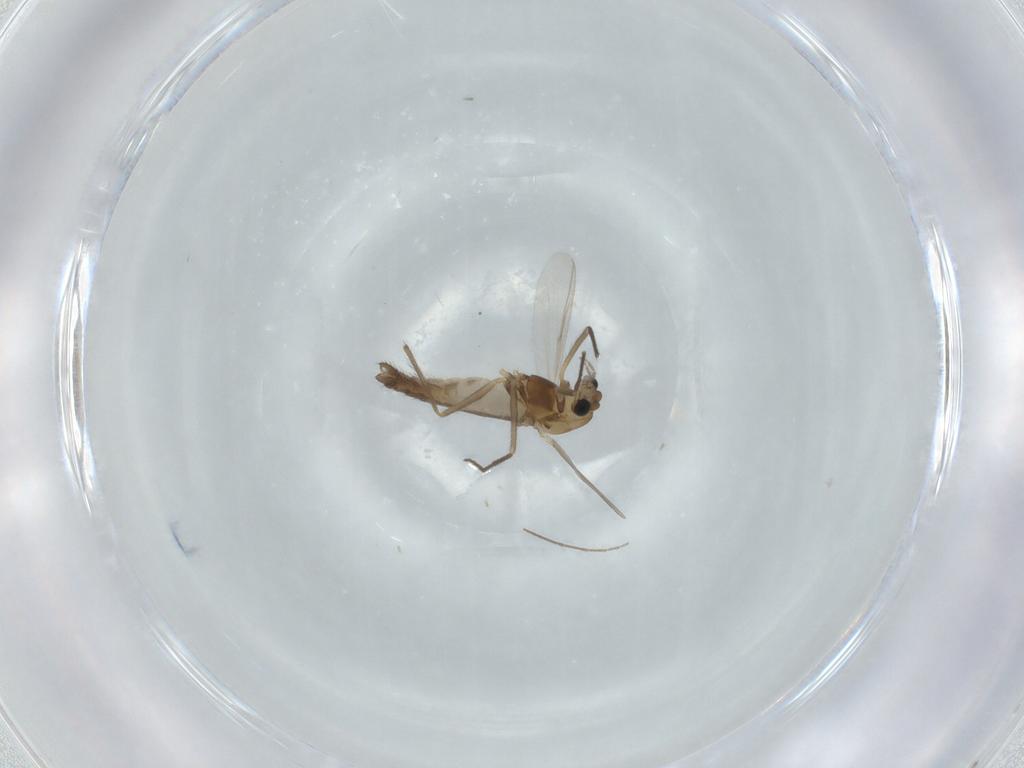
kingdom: Animalia
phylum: Arthropoda
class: Insecta
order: Diptera
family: Chironomidae
